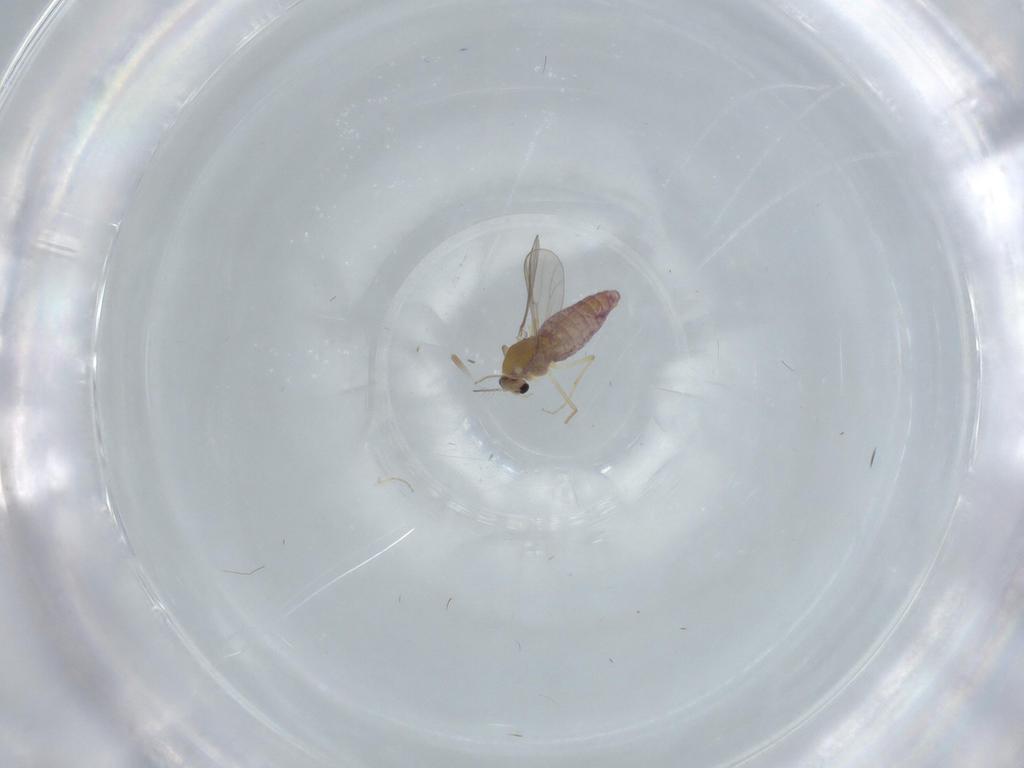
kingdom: Animalia
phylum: Arthropoda
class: Insecta
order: Diptera
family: Chironomidae
